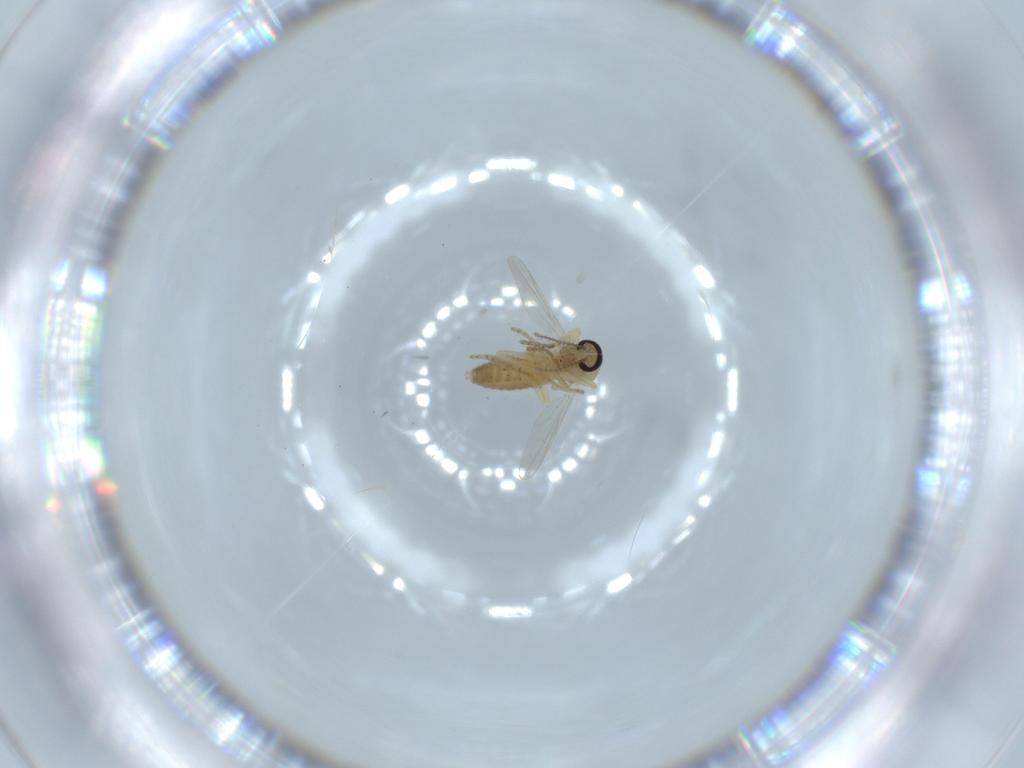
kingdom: Animalia
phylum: Arthropoda
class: Insecta
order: Diptera
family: Ceratopogonidae
